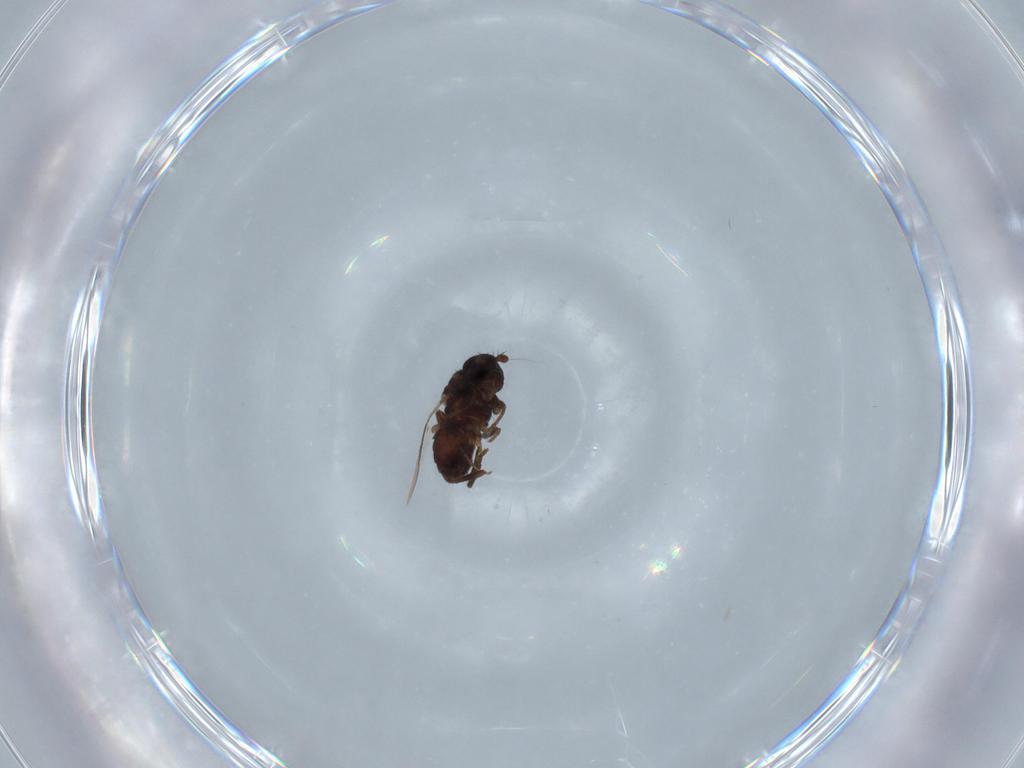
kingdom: Animalia
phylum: Arthropoda
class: Insecta
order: Diptera
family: Sphaeroceridae
